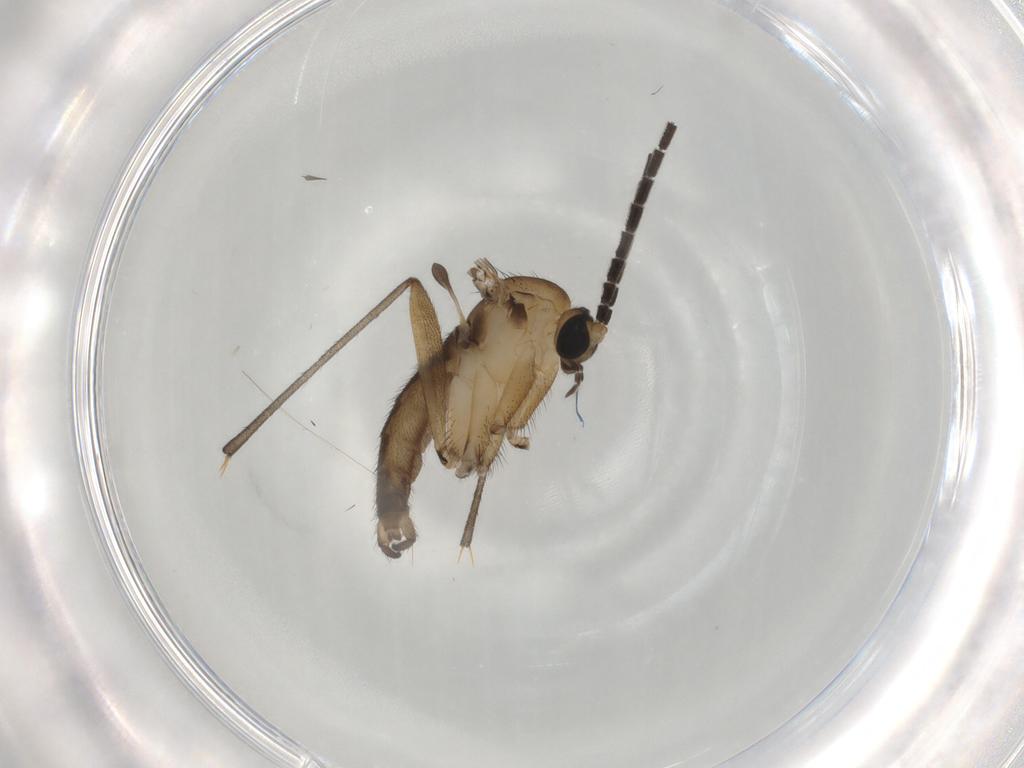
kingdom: Animalia
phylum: Arthropoda
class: Insecta
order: Diptera
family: Sciaridae
